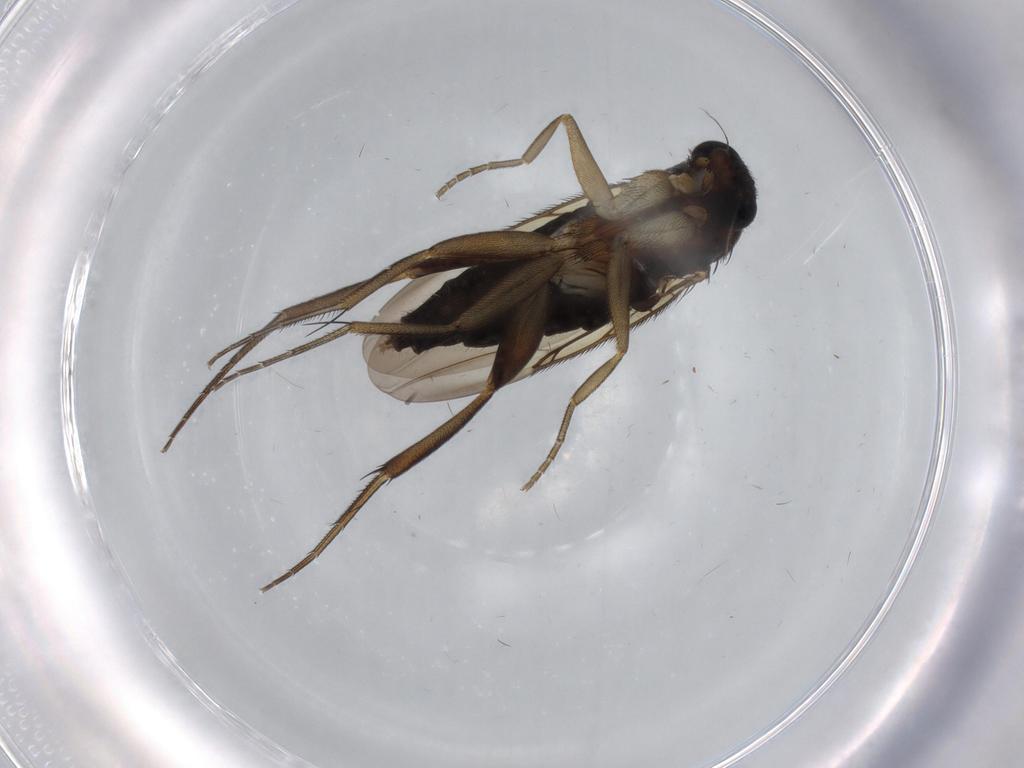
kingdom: Animalia
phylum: Arthropoda
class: Insecta
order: Diptera
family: Phoridae
